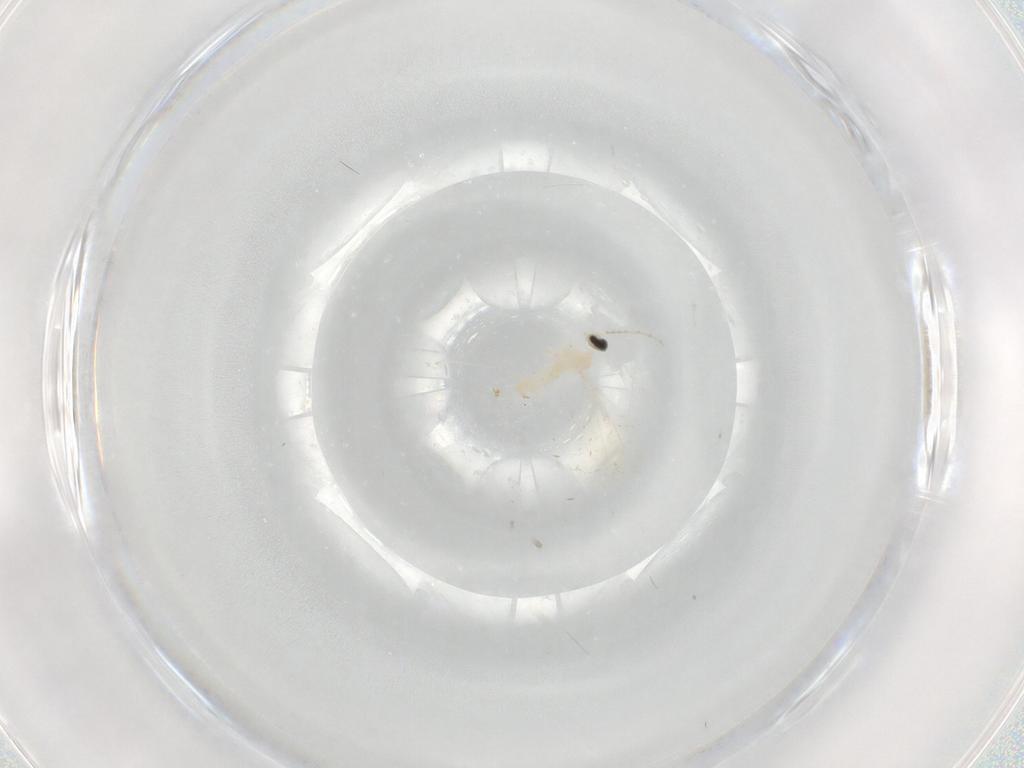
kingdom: Animalia
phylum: Arthropoda
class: Insecta
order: Diptera
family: Cecidomyiidae
